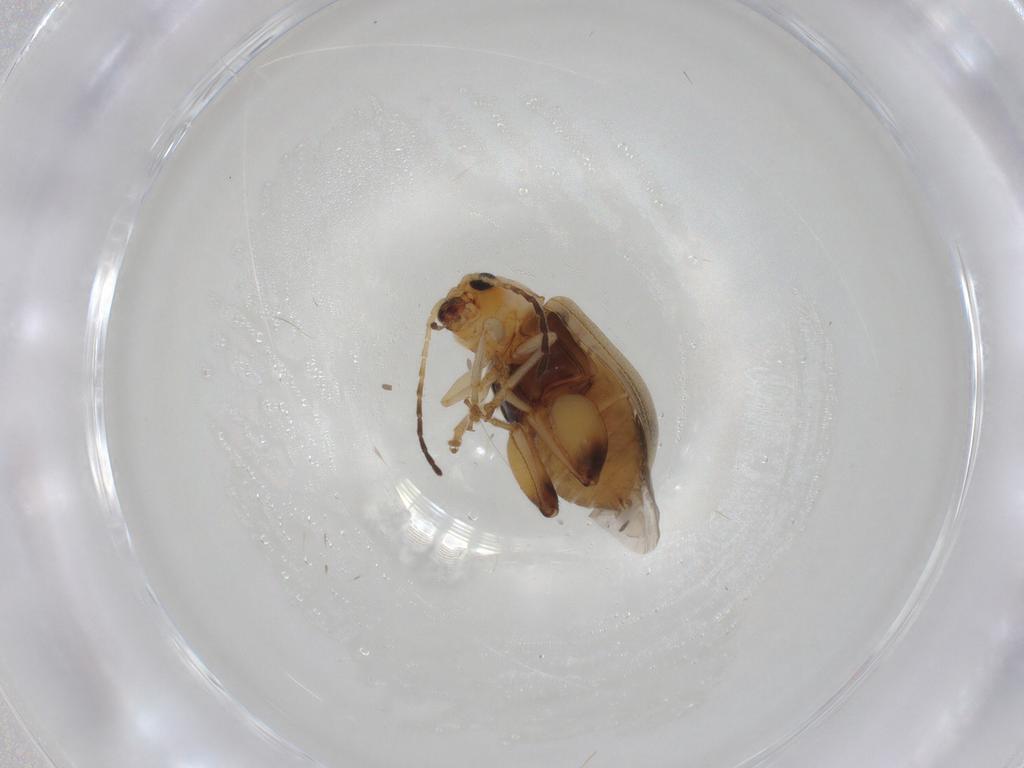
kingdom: Animalia
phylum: Arthropoda
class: Insecta
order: Coleoptera
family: Chrysomelidae
